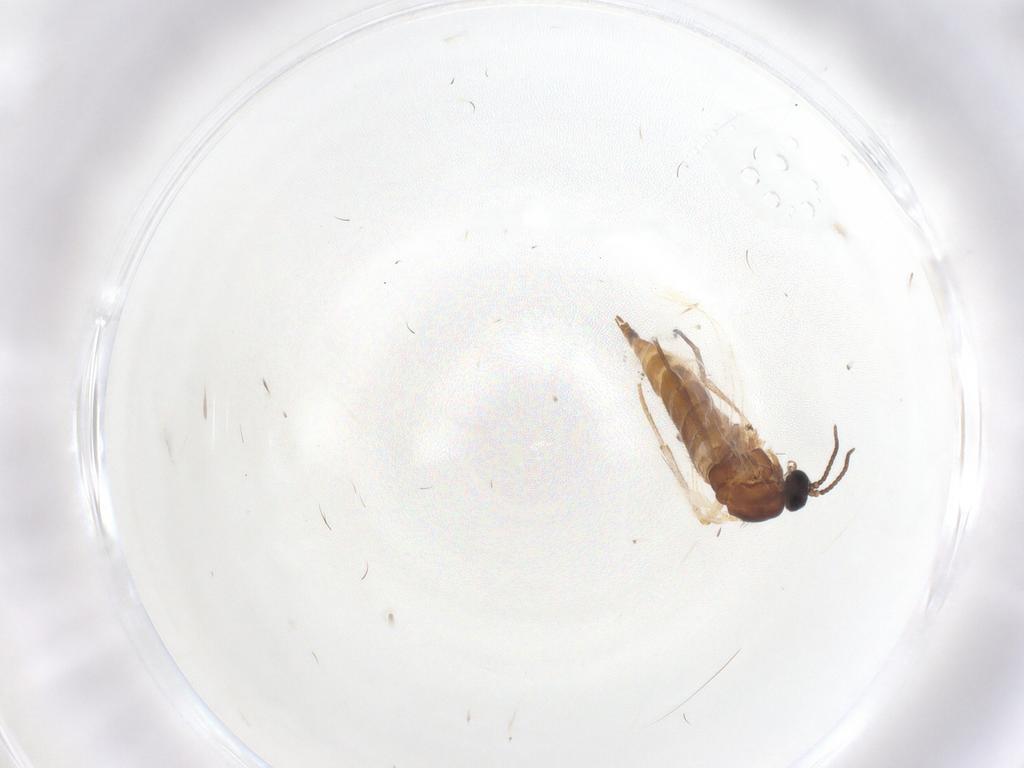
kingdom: Animalia
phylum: Arthropoda
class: Insecta
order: Diptera
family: Sciaridae
